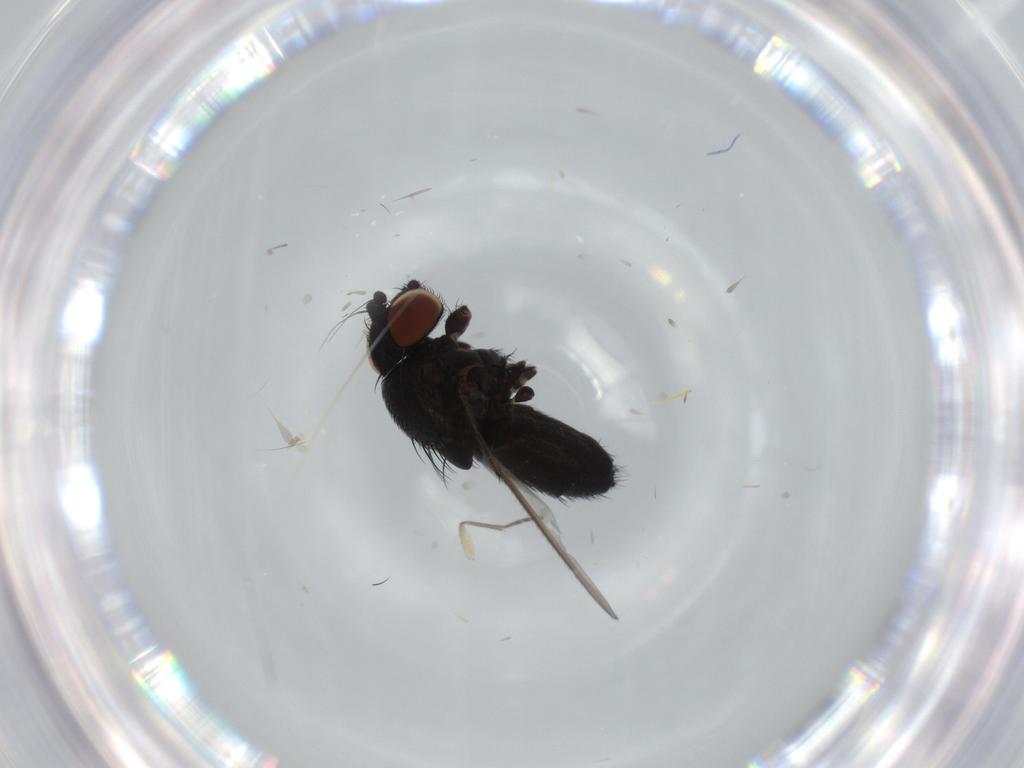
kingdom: Animalia
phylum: Arthropoda
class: Insecta
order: Diptera
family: Milichiidae
